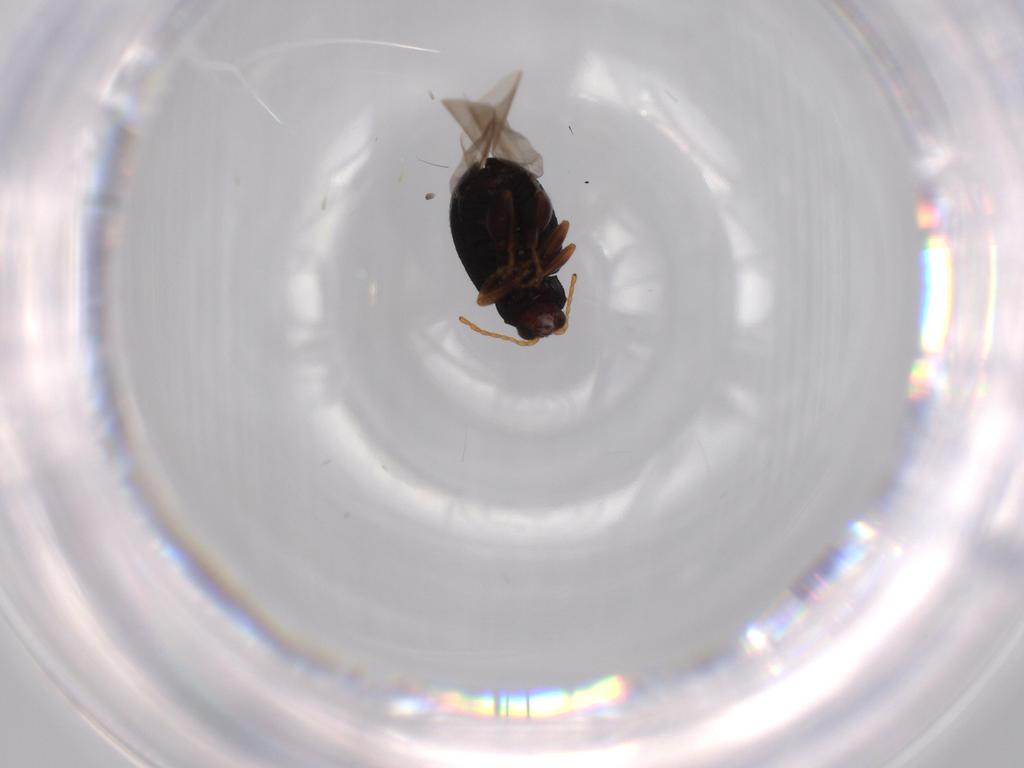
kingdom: Animalia
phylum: Arthropoda
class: Insecta
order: Coleoptera
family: Chrysomelidae
